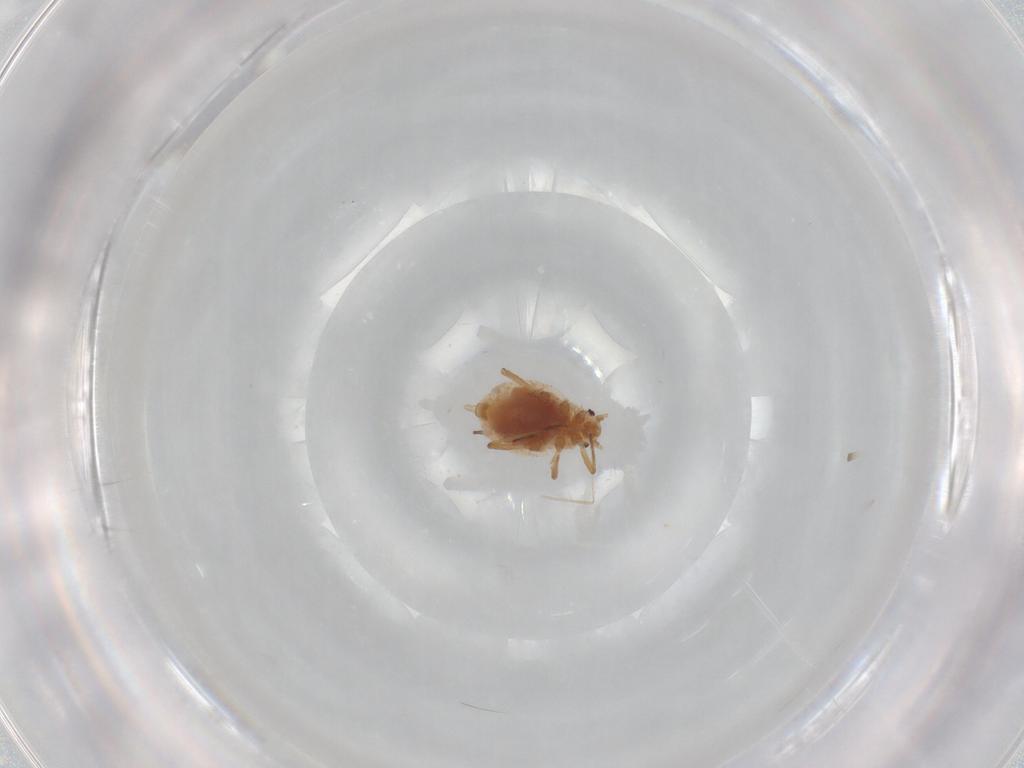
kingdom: Animalia
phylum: Arthropoda
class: Insecta
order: Hemiptera
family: Aphididae
